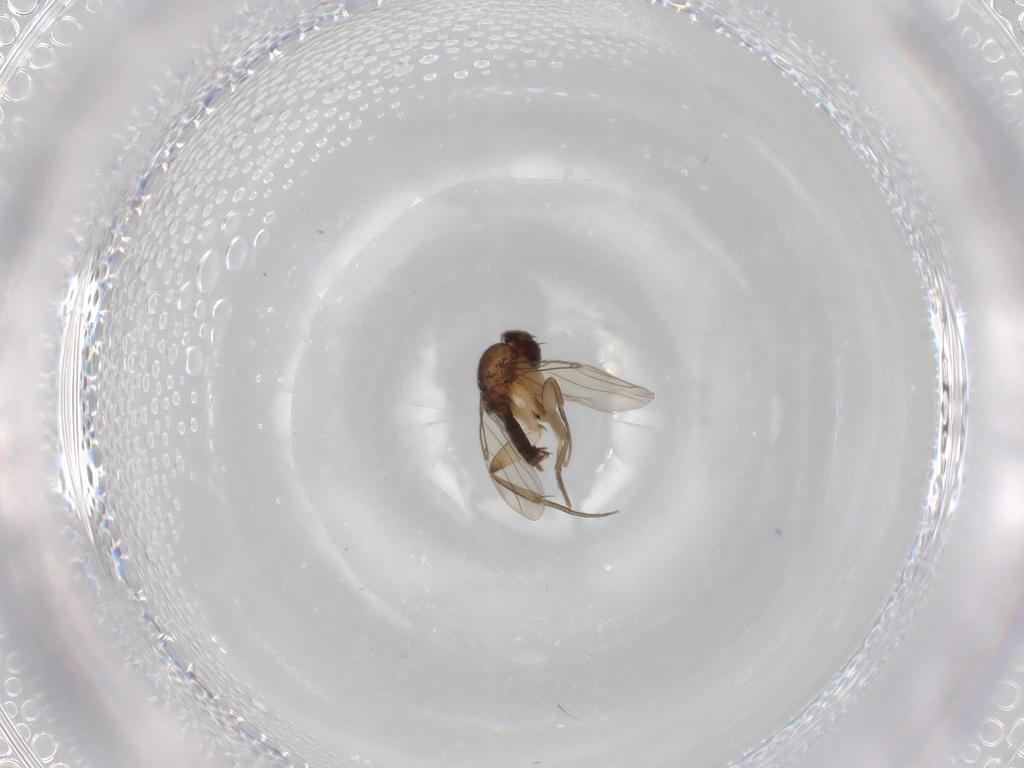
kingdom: Animalia
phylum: Arthropoda
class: Insecta
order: Diptera
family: Phoridae
